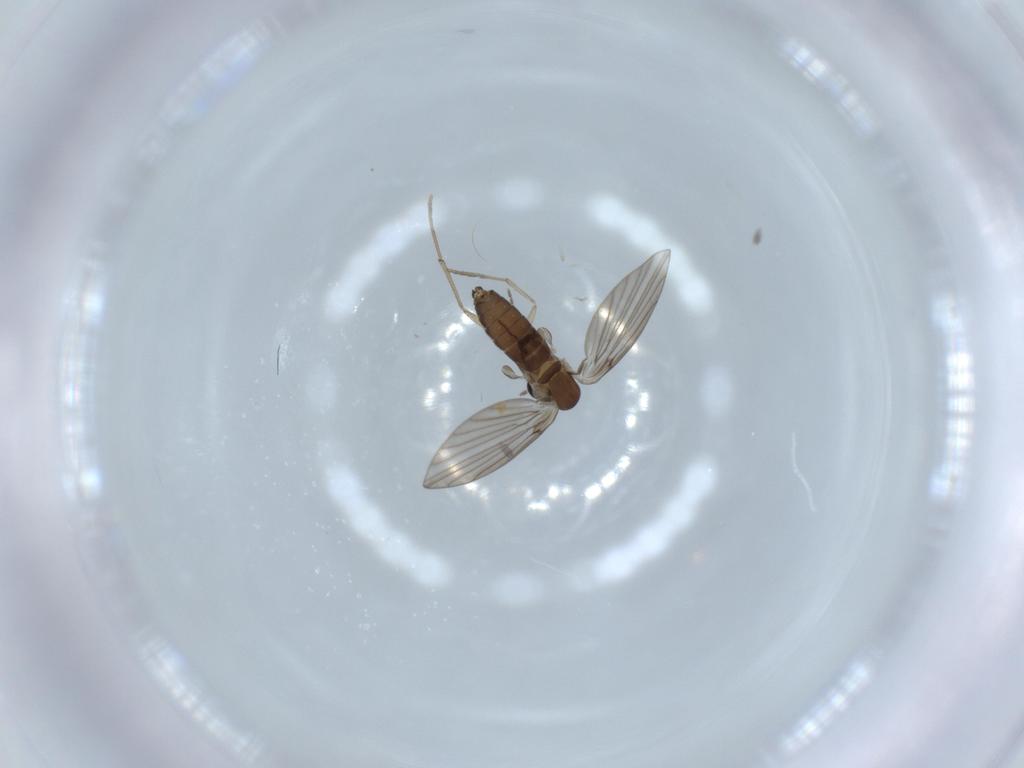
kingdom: Animalia
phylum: Arthropoda
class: Insecta
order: Diptera
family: Psychodidae
